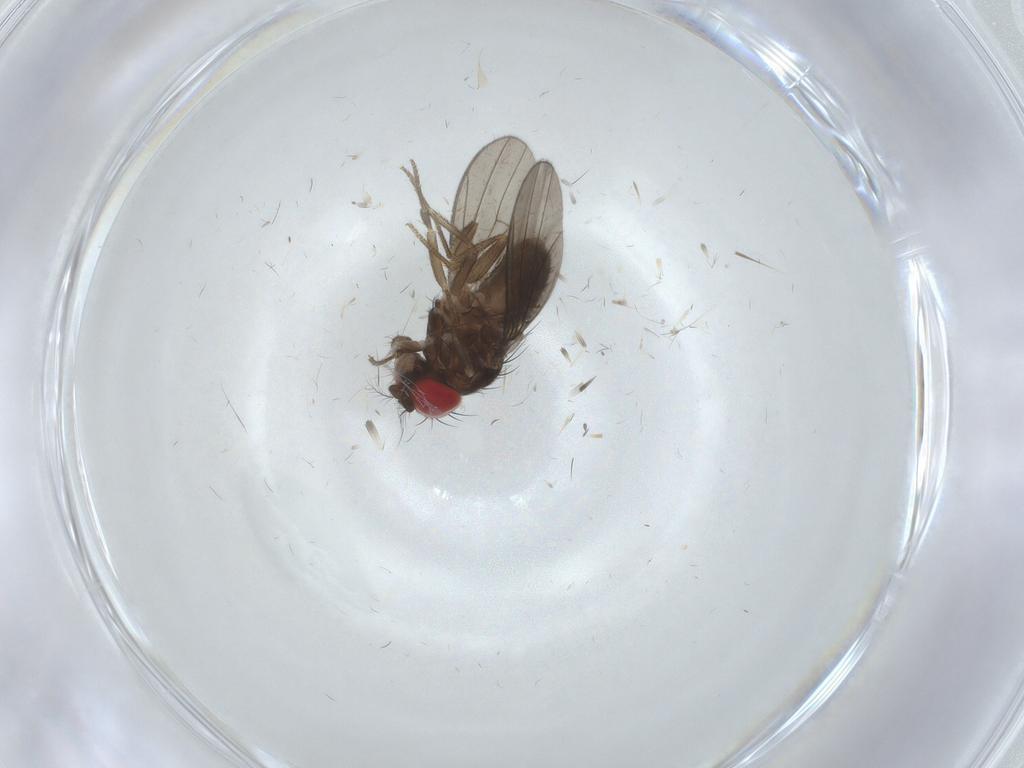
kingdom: Animalia
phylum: Arthropoda
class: Insecta
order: Diptera
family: Drosophilidae
